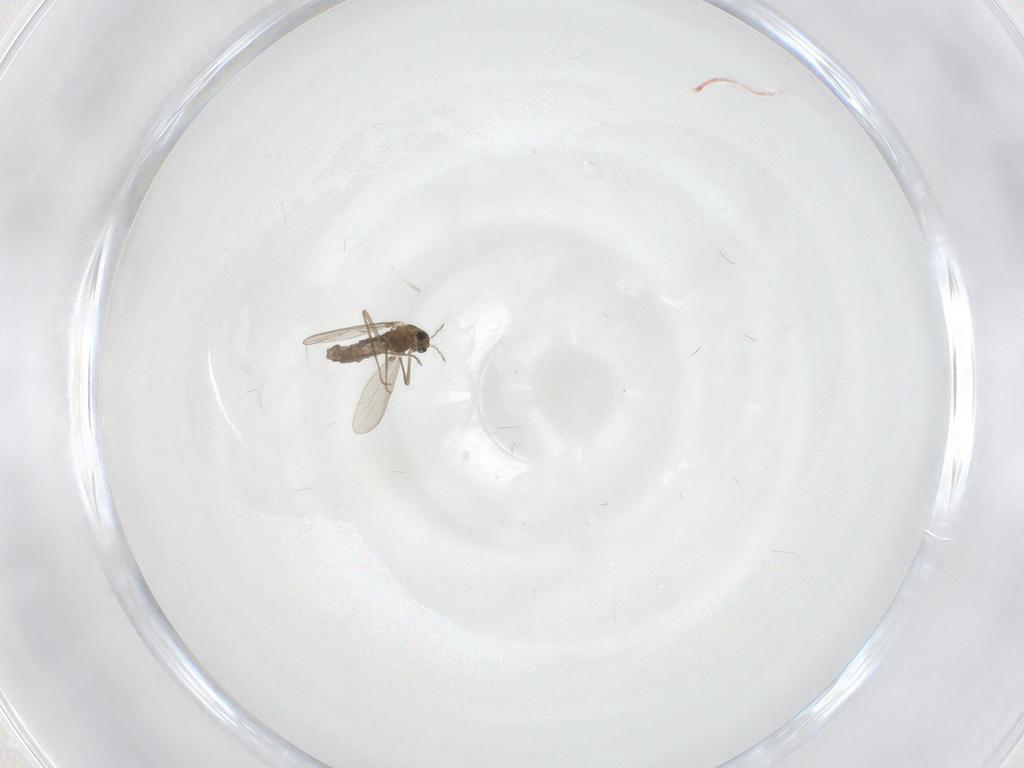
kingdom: Animalia
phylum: Arthropoda
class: Insecta
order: Diptera
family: Chironomidae
